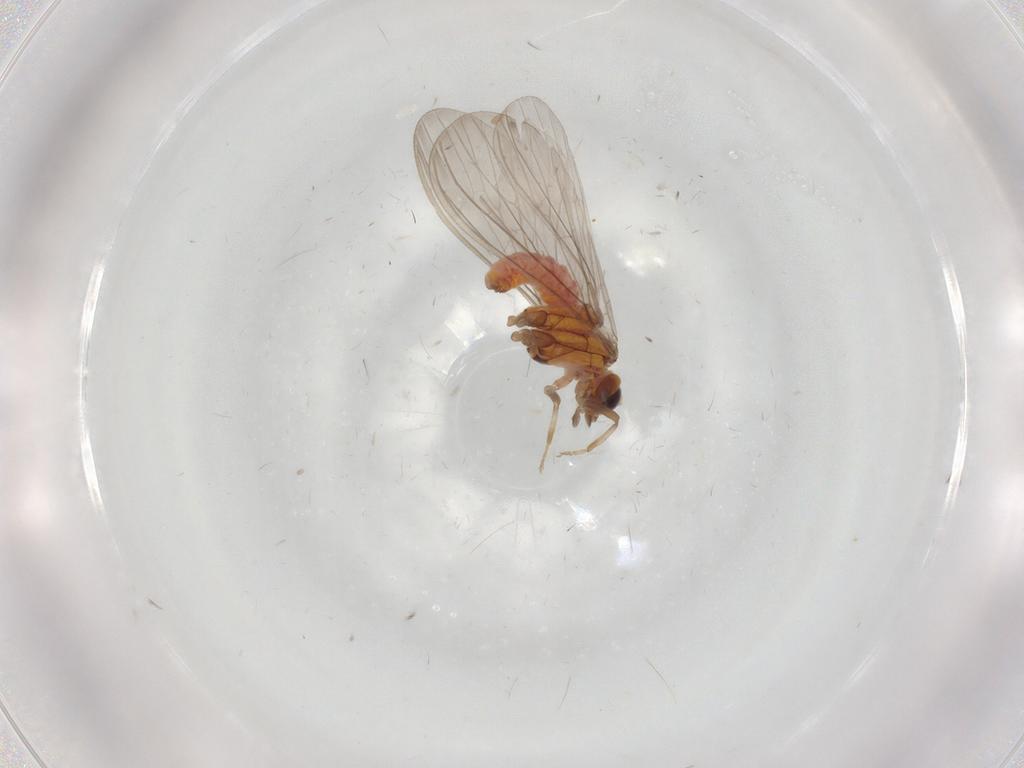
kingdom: Animalia
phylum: Arthropoda
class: Insecta
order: Neuroptera
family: Coniopterygidae
